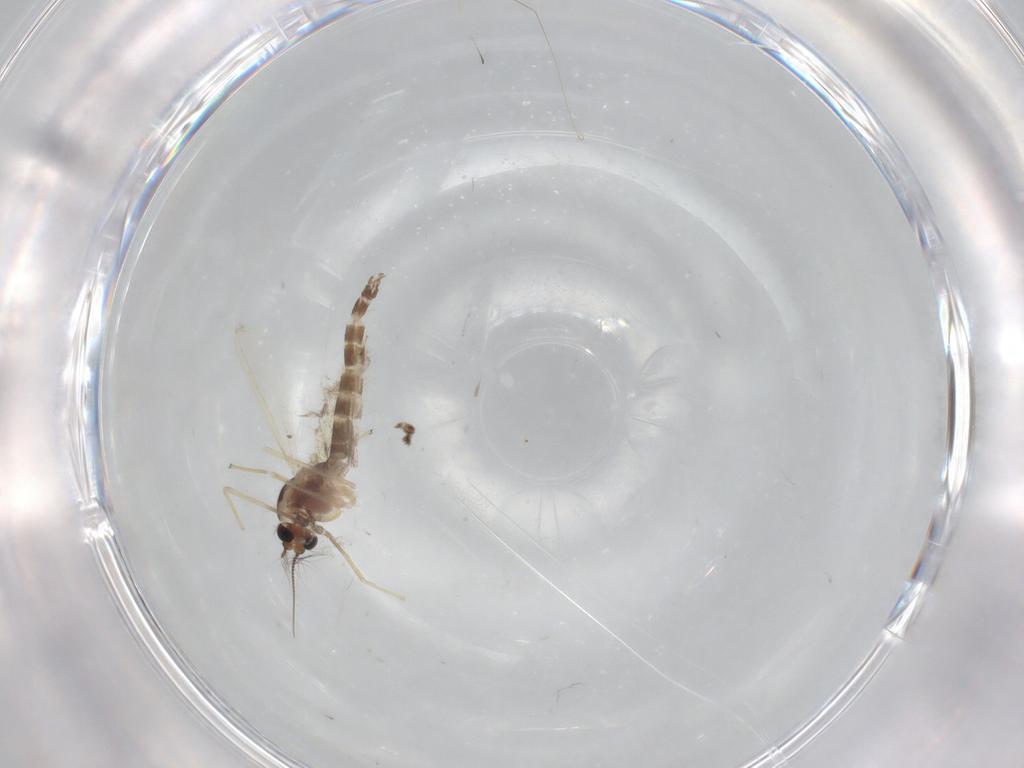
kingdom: Animalia
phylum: Arthropoda
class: Insecta
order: Diptera
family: Chironomidae
